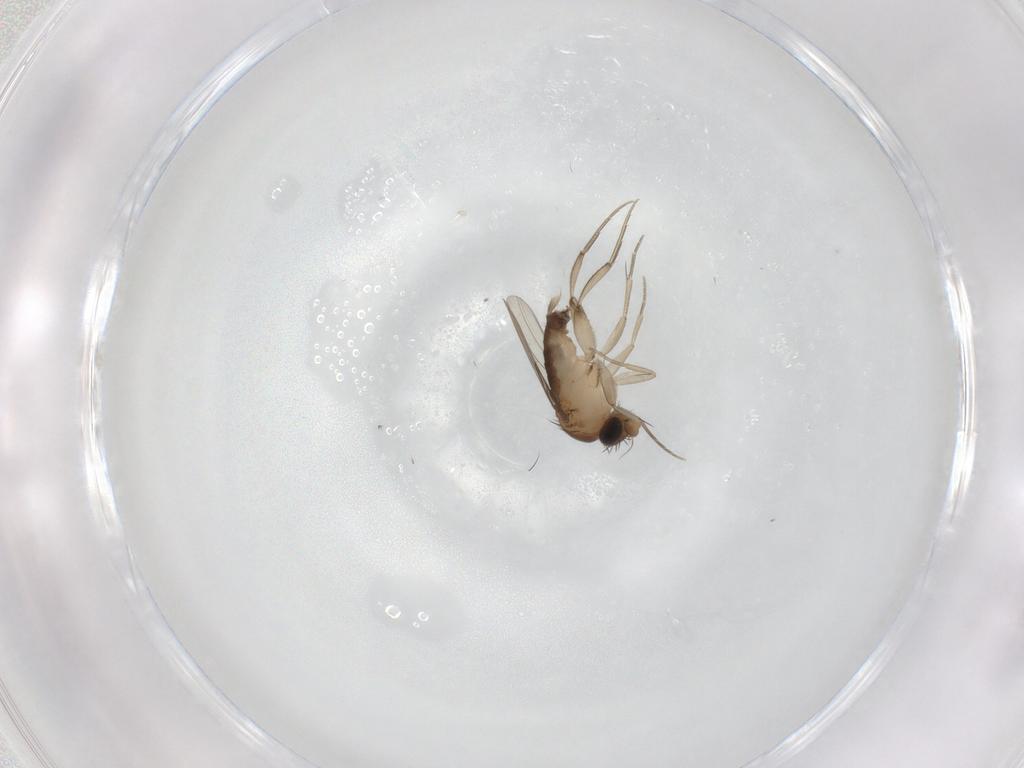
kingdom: Animalia
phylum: Arthropoda
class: Insecta
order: Diptera
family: Phoridae
